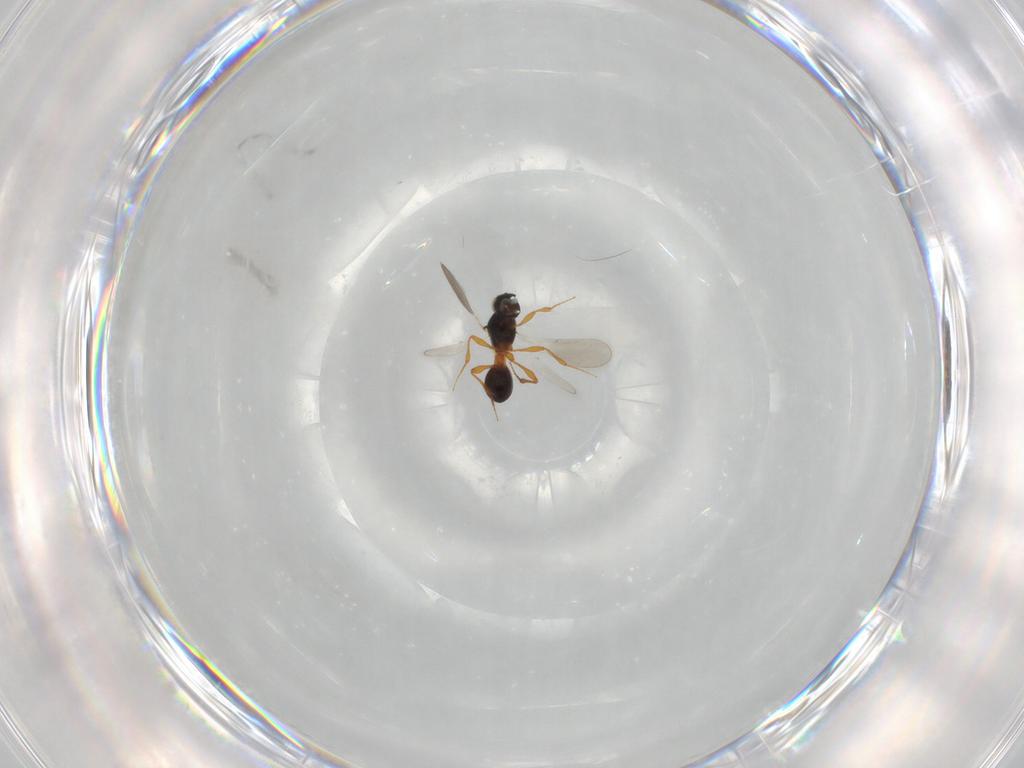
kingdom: Animalia
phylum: Arthropoda
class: Insecta
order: Hymenoptera
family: Platygastridae
